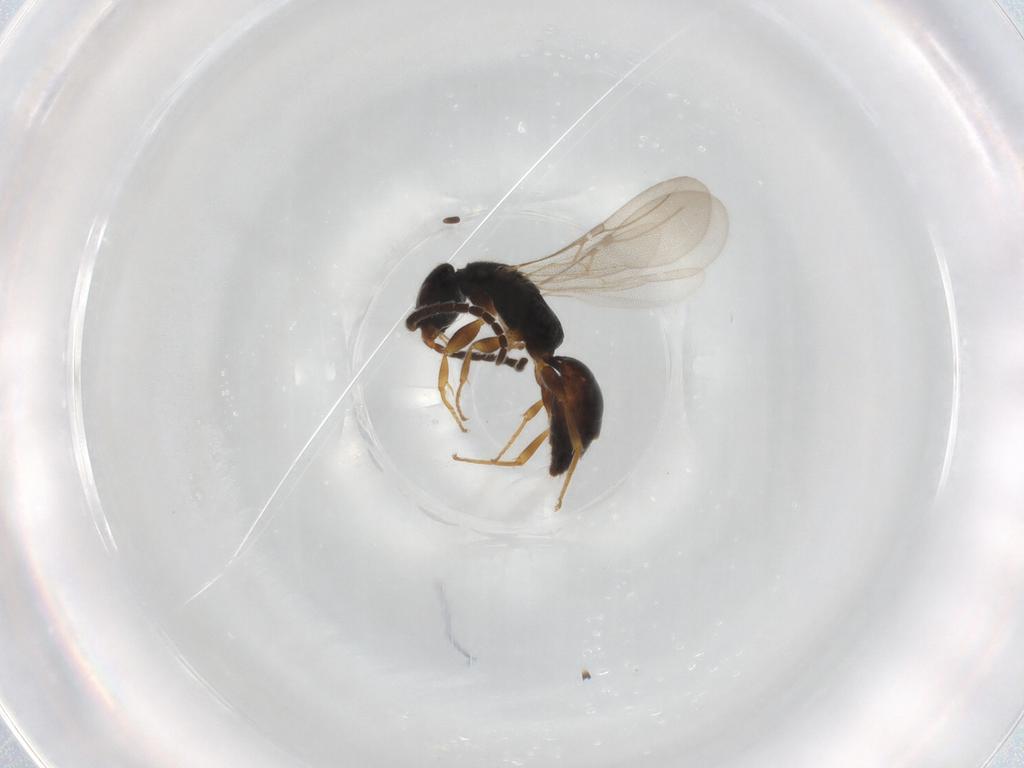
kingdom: Animalia
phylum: Arthropoda
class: Insecta
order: Hymenoptera
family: Bethylidae
